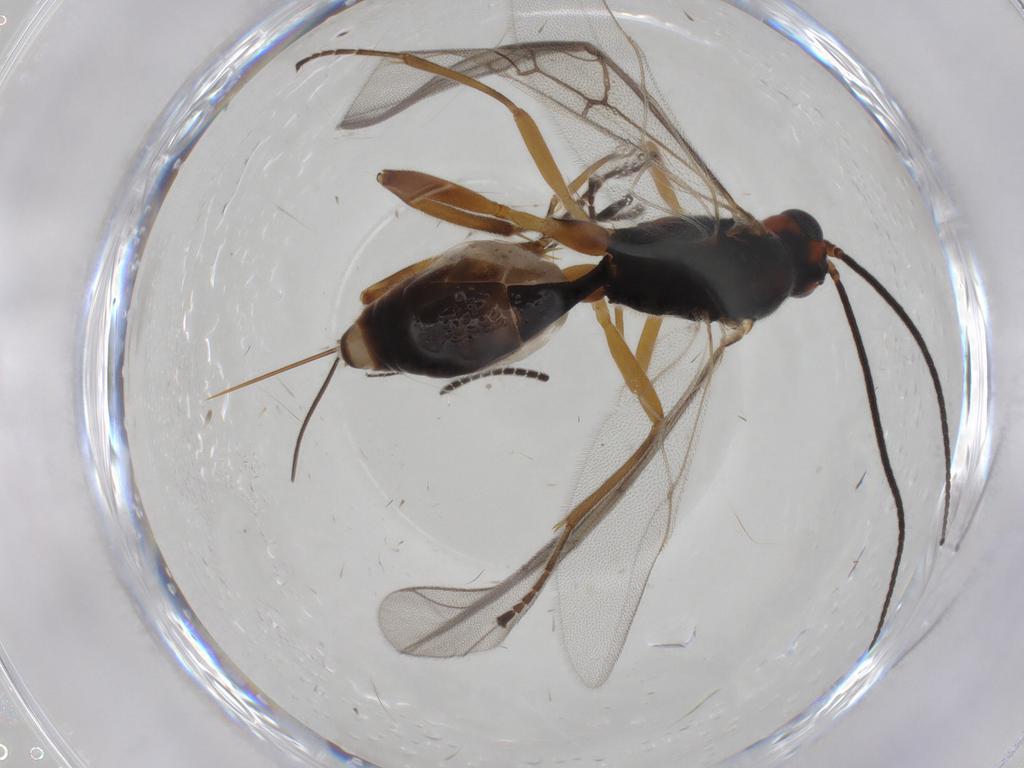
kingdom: Animalia
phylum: Arthropoda
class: Insecta
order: Hymenoptera
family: Braconidae
